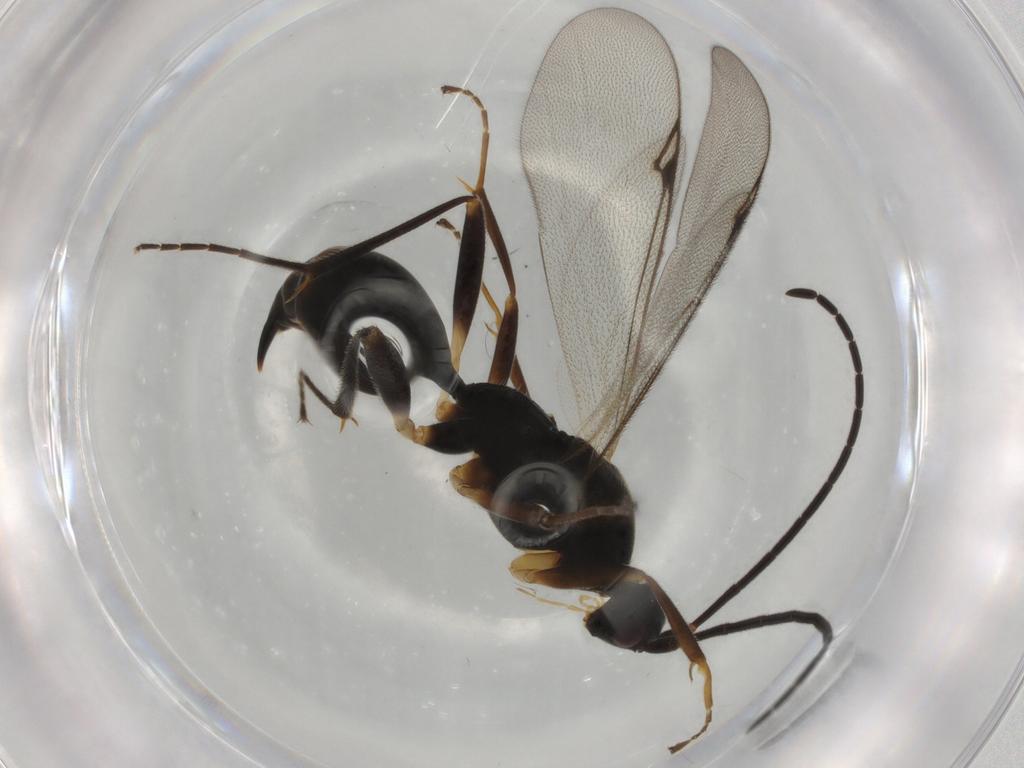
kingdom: Animalia
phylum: Arthropoda
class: Insecta
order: Hymenoptera
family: Proctotrupidae
